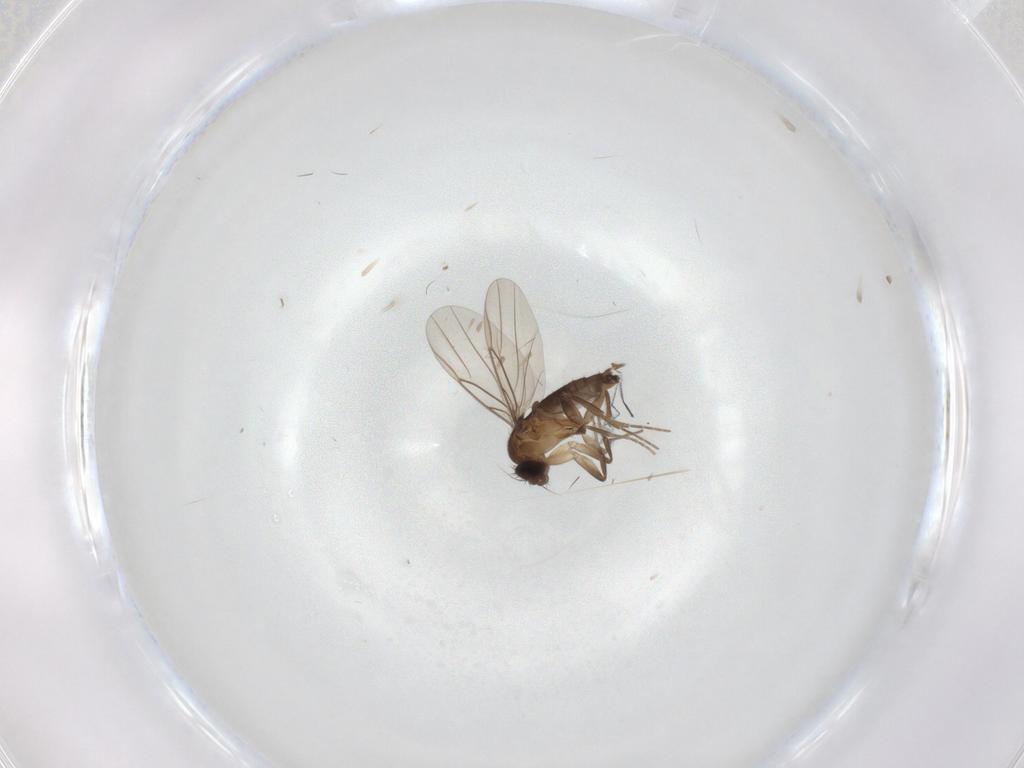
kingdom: Animalia
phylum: Arthropoda
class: Insecta
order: Diptera
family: Phoridae
